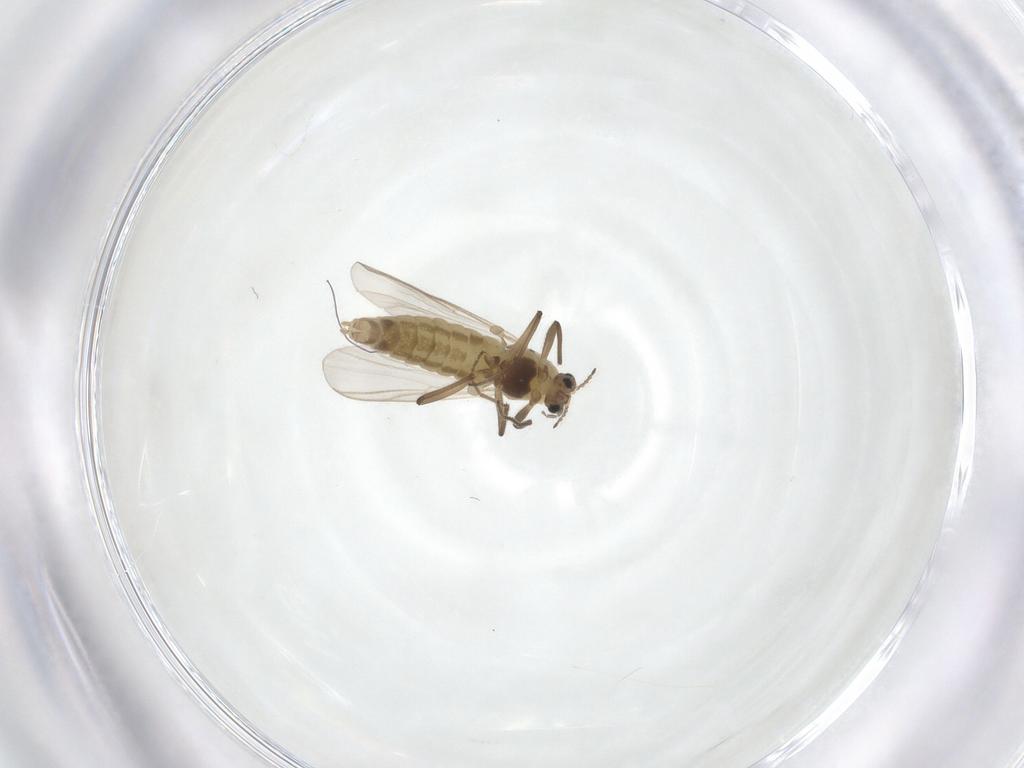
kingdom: Animalia
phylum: Arthropoda
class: Insecta
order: Diptera
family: Chironomidae
